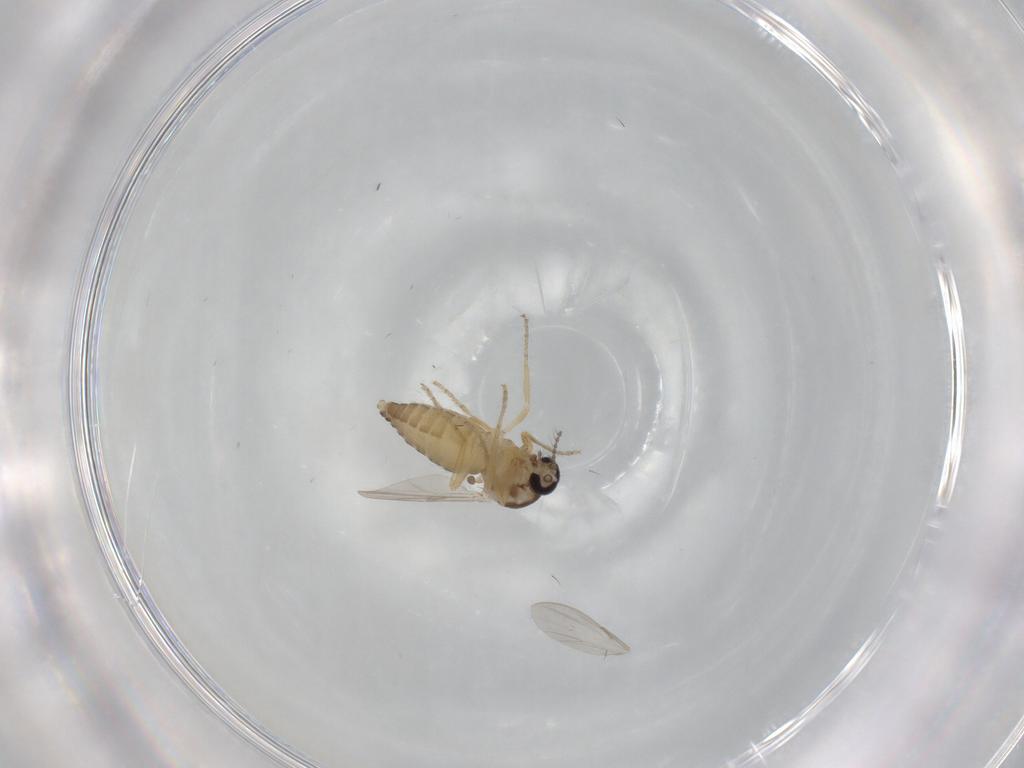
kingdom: Animalia
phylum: Arthropoda
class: Insecta
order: Diptera
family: Ceratopogonidae
